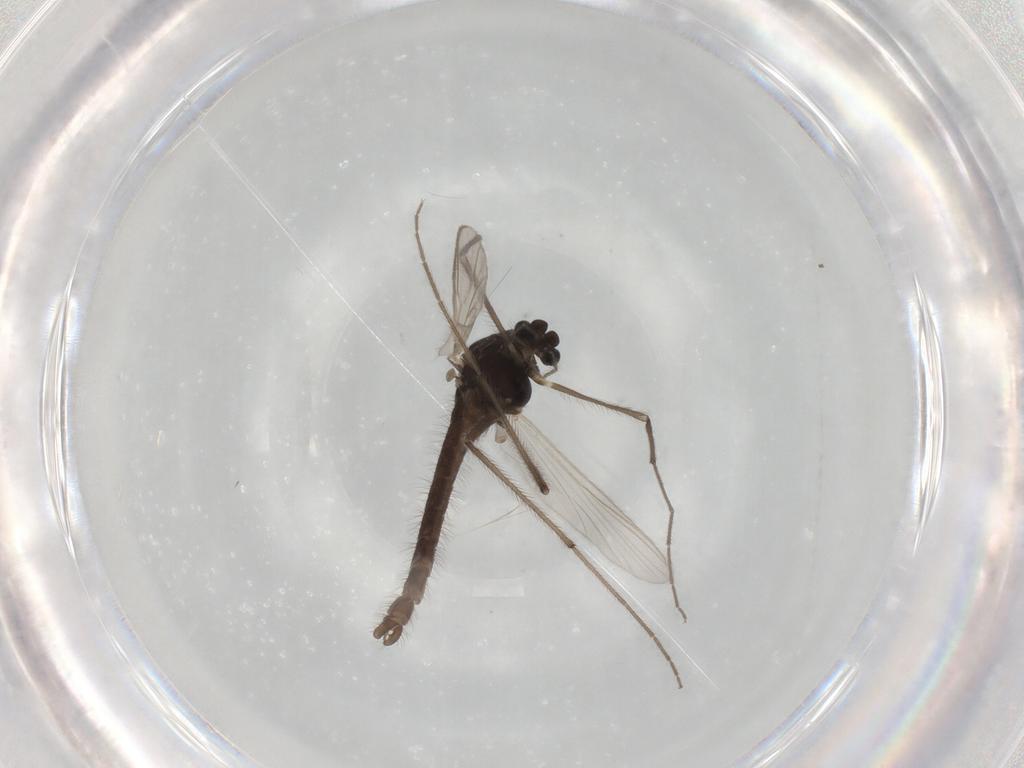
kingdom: Animalia
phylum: Arthropoda
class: Insecta
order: Diptera
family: Chironomidae
